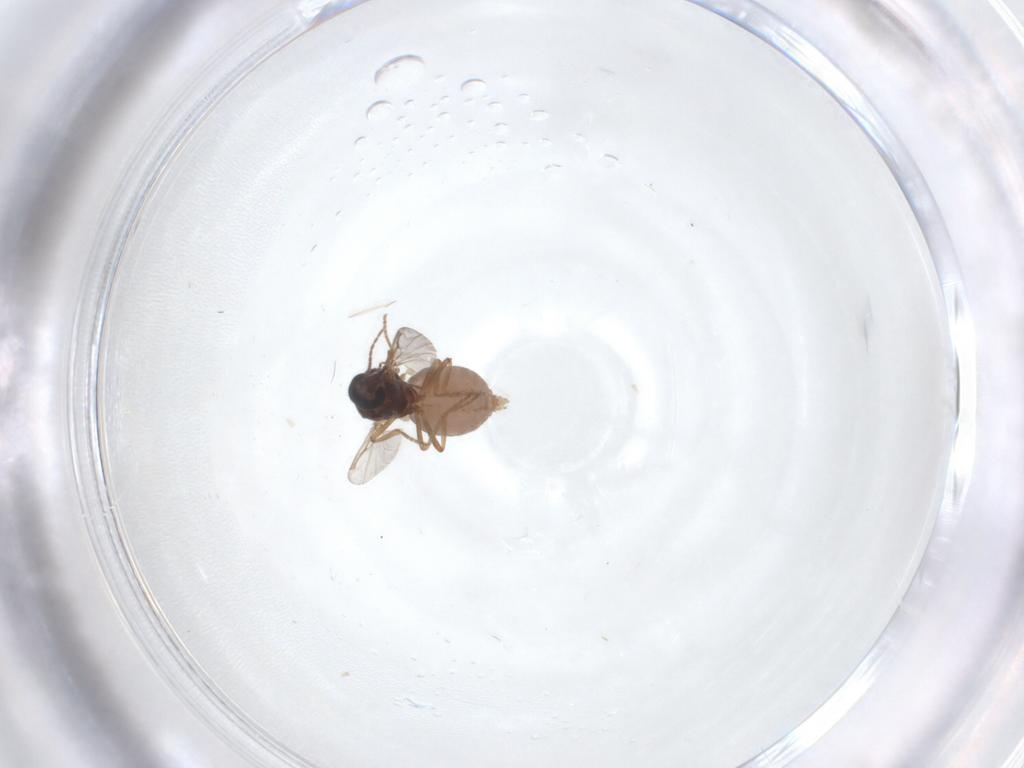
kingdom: Animalia
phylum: Arthropoda
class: Insecta
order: Diptera
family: Ceratopogonidae
